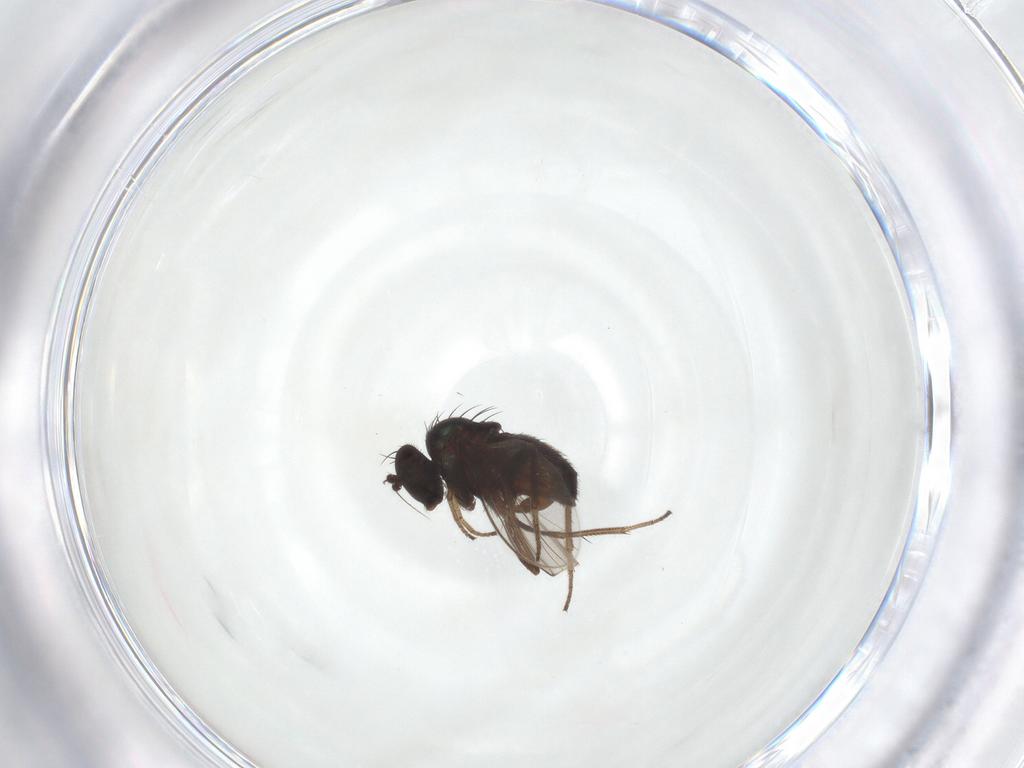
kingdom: Animalia
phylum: Arthropoda
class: Insecta
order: Diptera
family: Dolichopodidae
